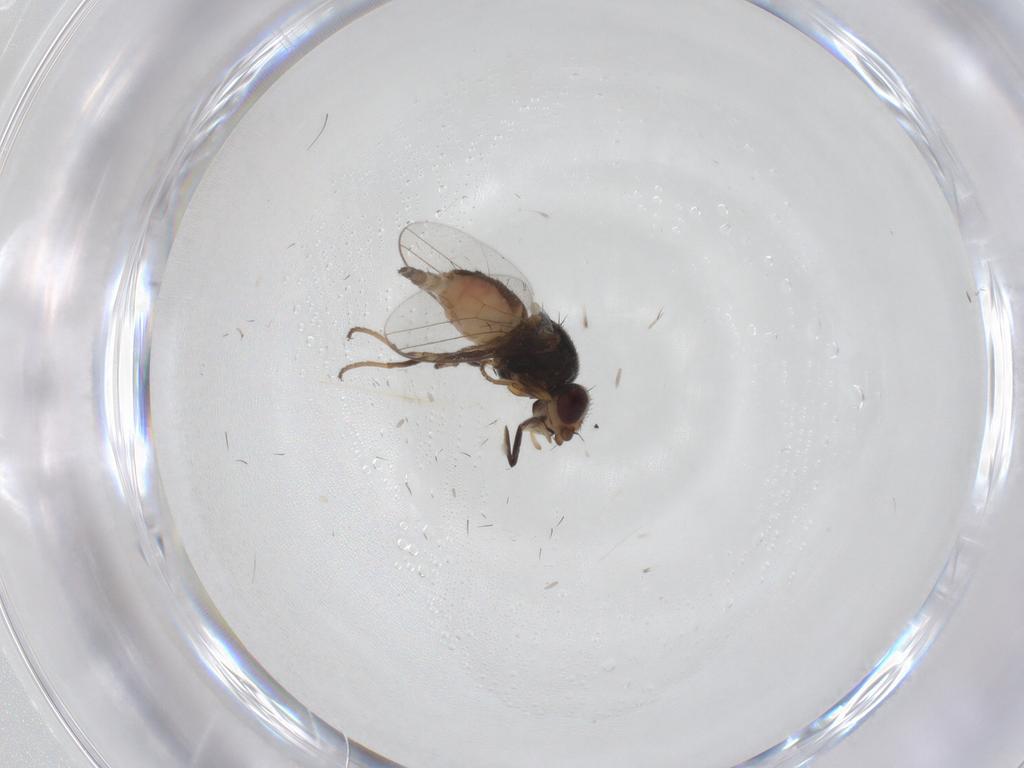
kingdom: Animalia
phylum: Arthropoda
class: Insecta
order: Diptera
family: Chloropidae
